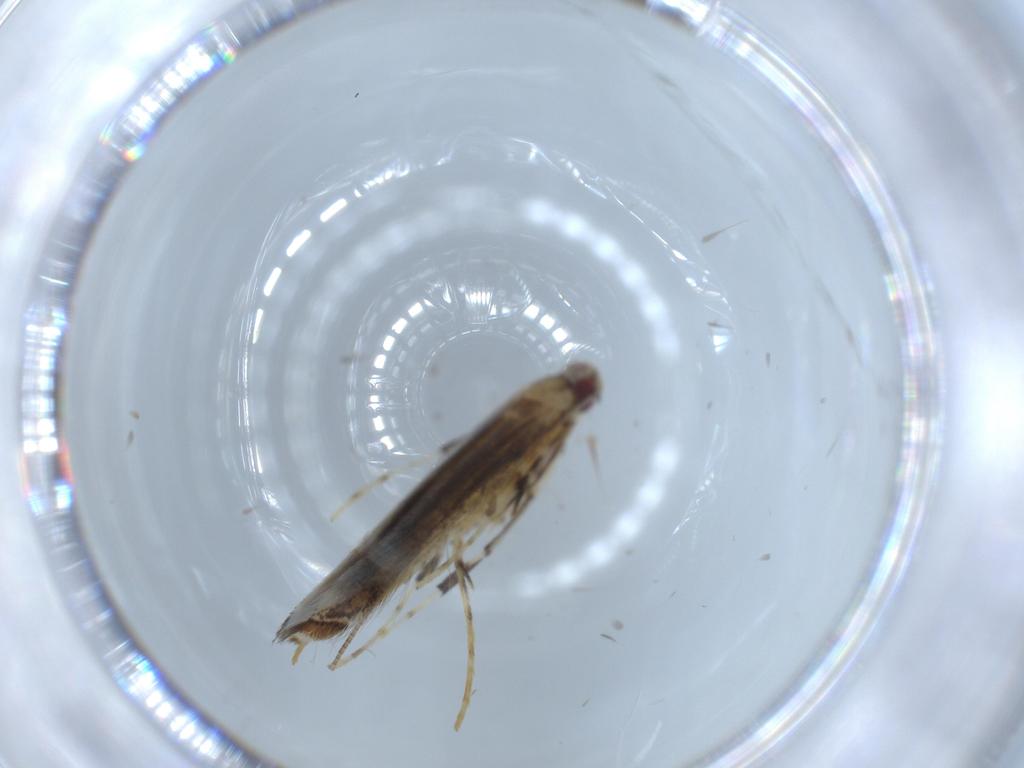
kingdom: Animalia
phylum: Arthropoda
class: Insecta
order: Lepidoptera
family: Gracillariidae
